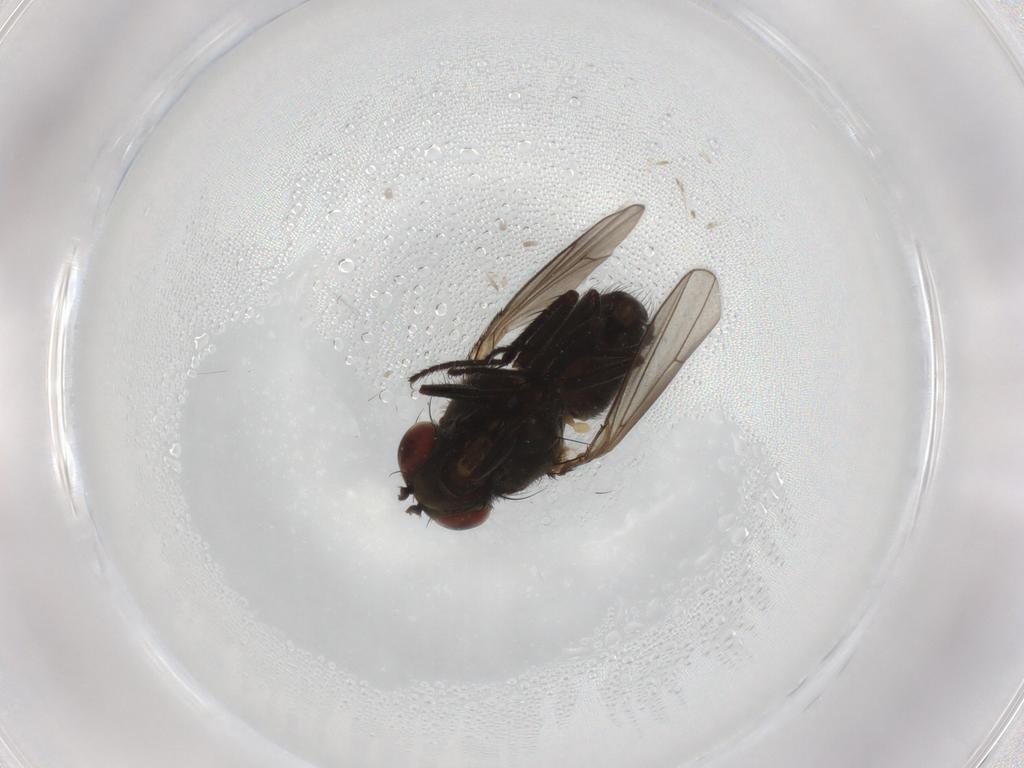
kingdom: Animalia
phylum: Arthropoda
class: Insecta
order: Diptera
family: Ephydridae
